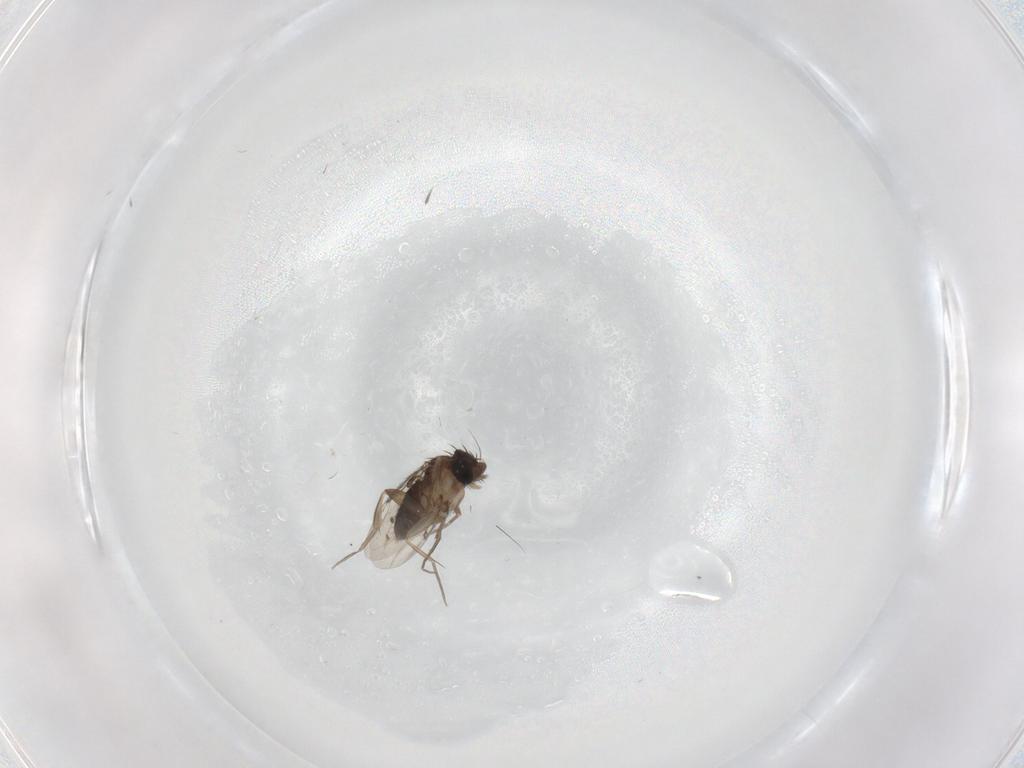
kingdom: Animalia
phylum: Arthropoda
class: Insecta
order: Diptera
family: Phoridae
